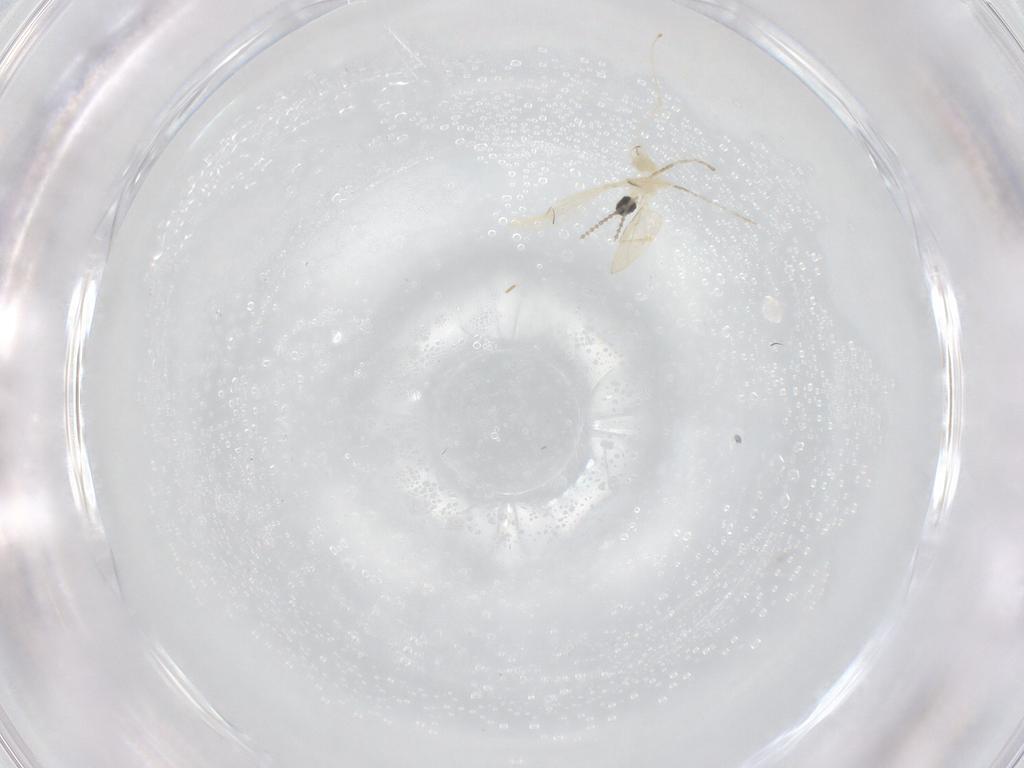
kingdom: Animalia
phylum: Arthropoda
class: Insecta
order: Diptera
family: Cecidomyiidae
